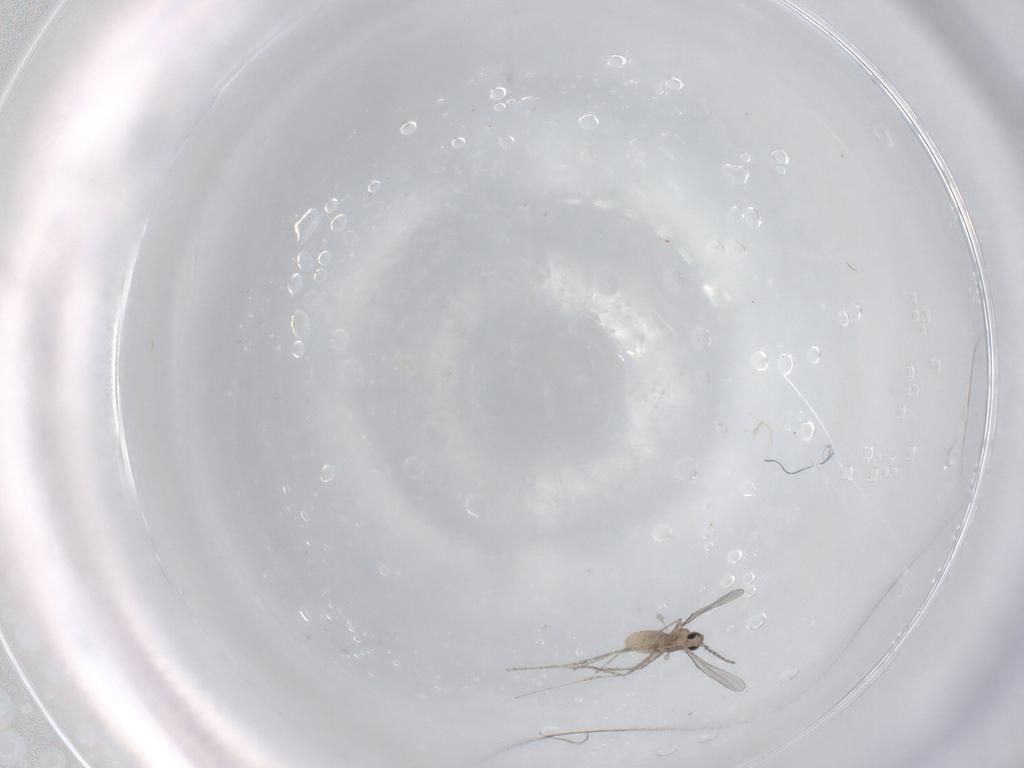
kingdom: Animalia
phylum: Arthropoda
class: Insecta
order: Diptera
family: Cecidomyiidae
